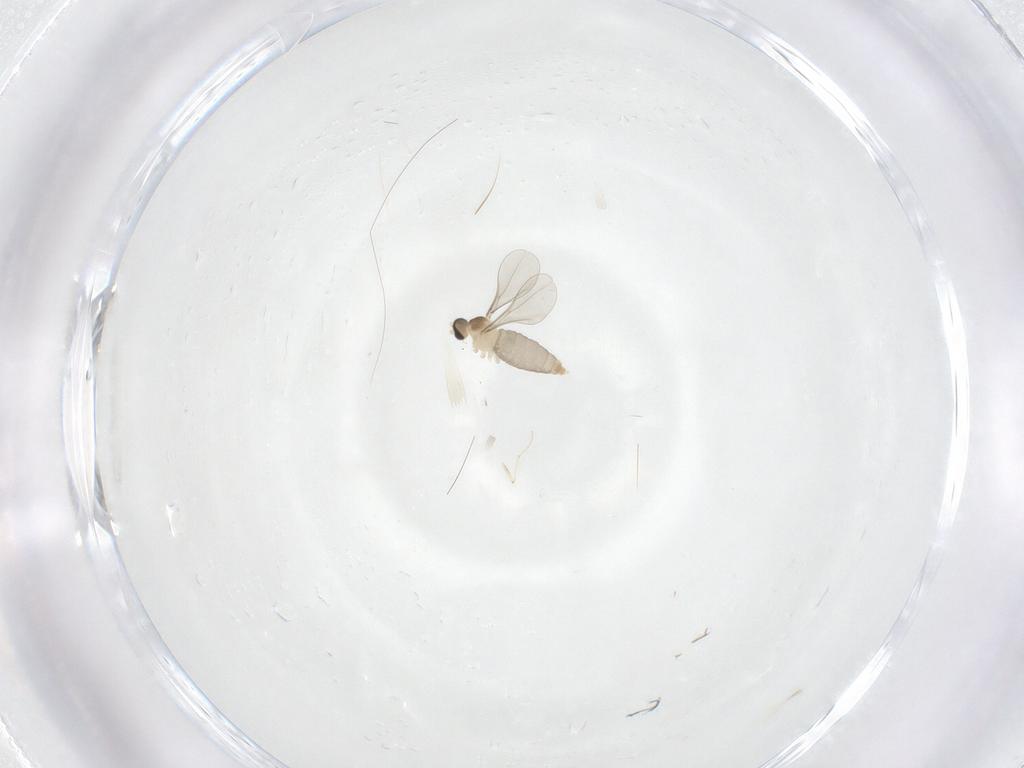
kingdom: Animalia
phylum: Arthropoda
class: Insecta
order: Diptera
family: Cecidomyiidae
